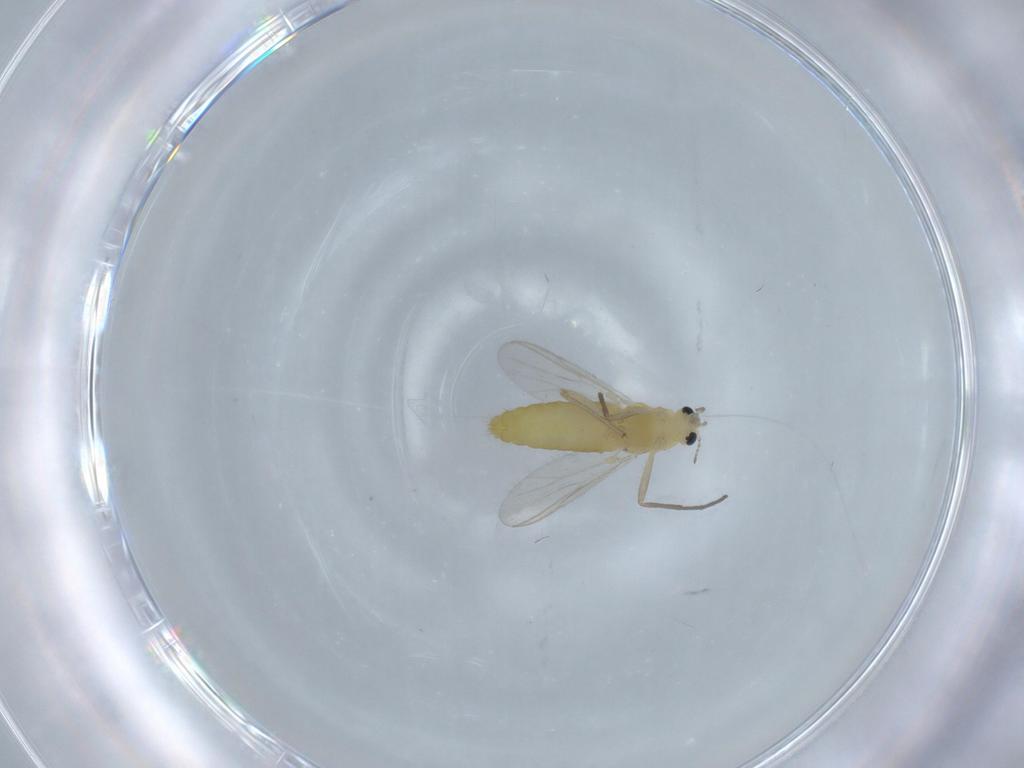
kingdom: Animalia
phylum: Arthropoda
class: Insecta
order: Diptera
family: Chironomidae
